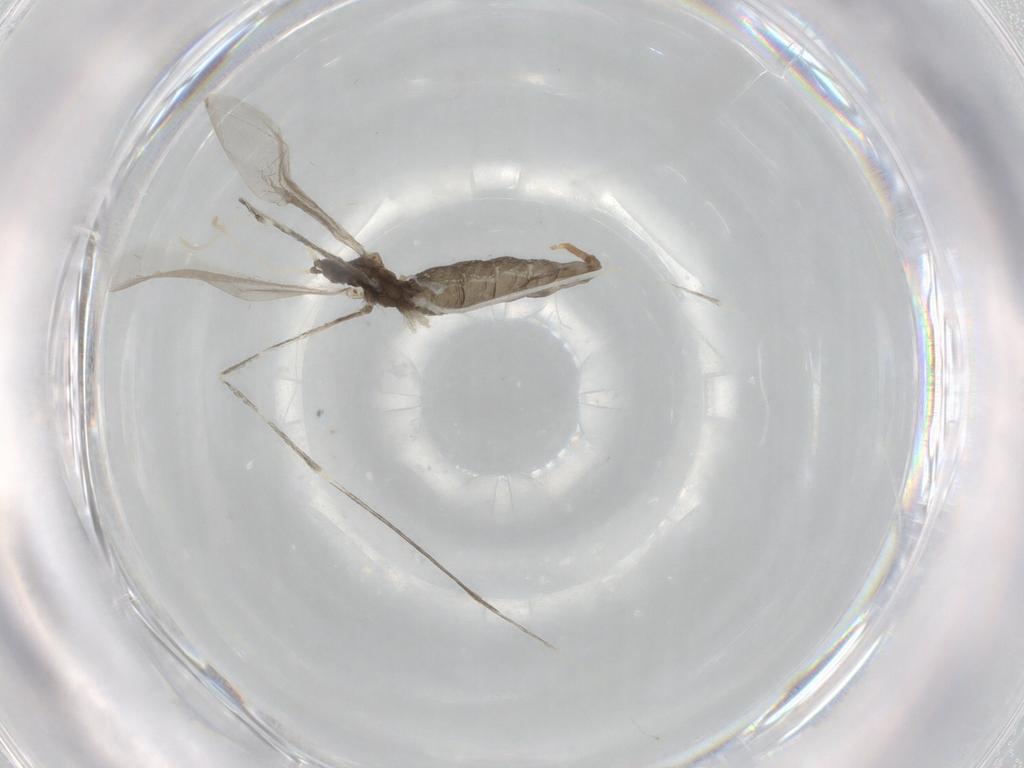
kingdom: Animalia
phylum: Arthropoda
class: Insecta
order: Diptera
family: Cecidomyiidae
